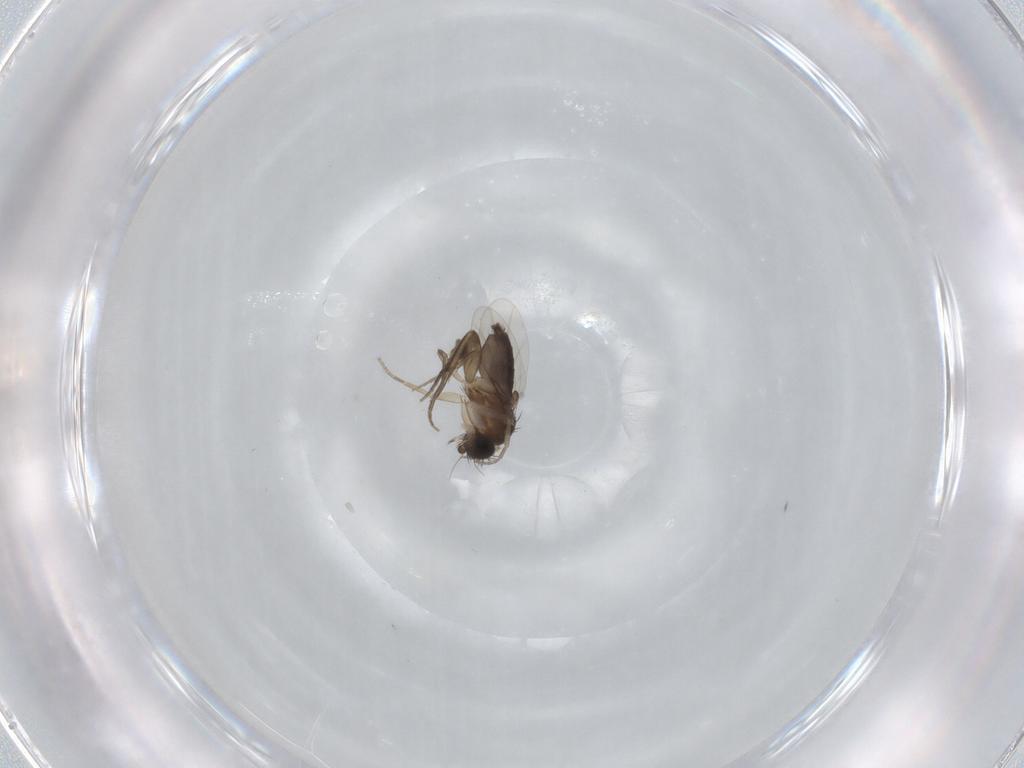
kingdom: Animalia
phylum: Arthropoda
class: Insecta
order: Diptera
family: Phoridae
